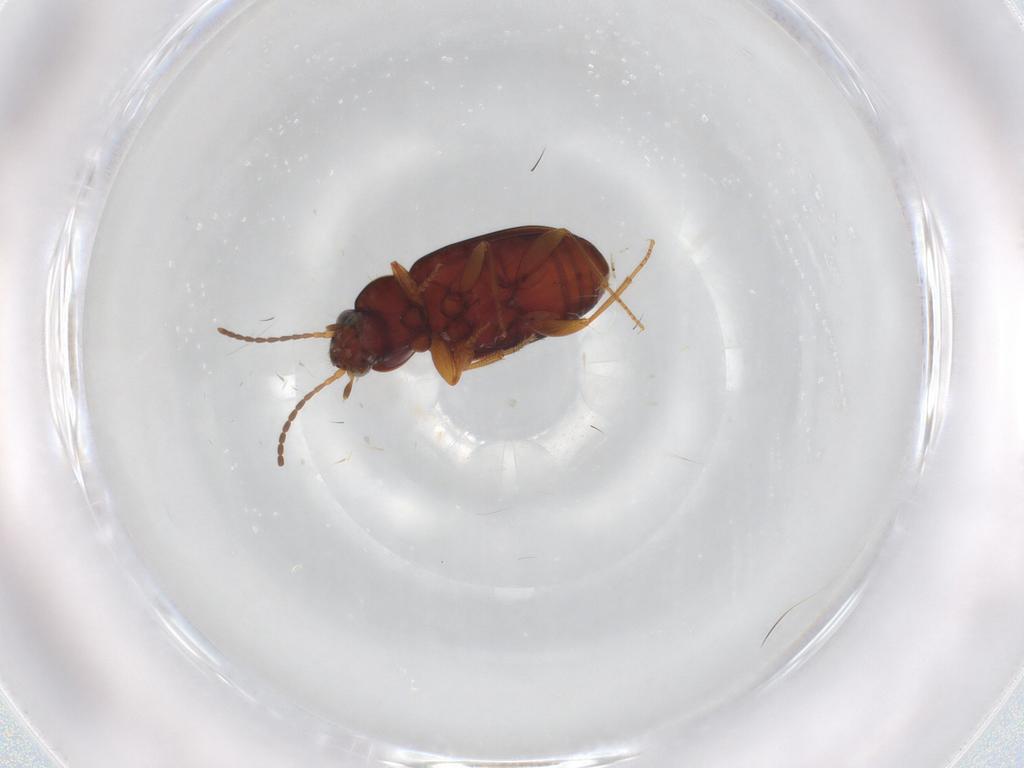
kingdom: Animalia
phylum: Arthropoda
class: Insecta
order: Coleoptera
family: Carabidae
